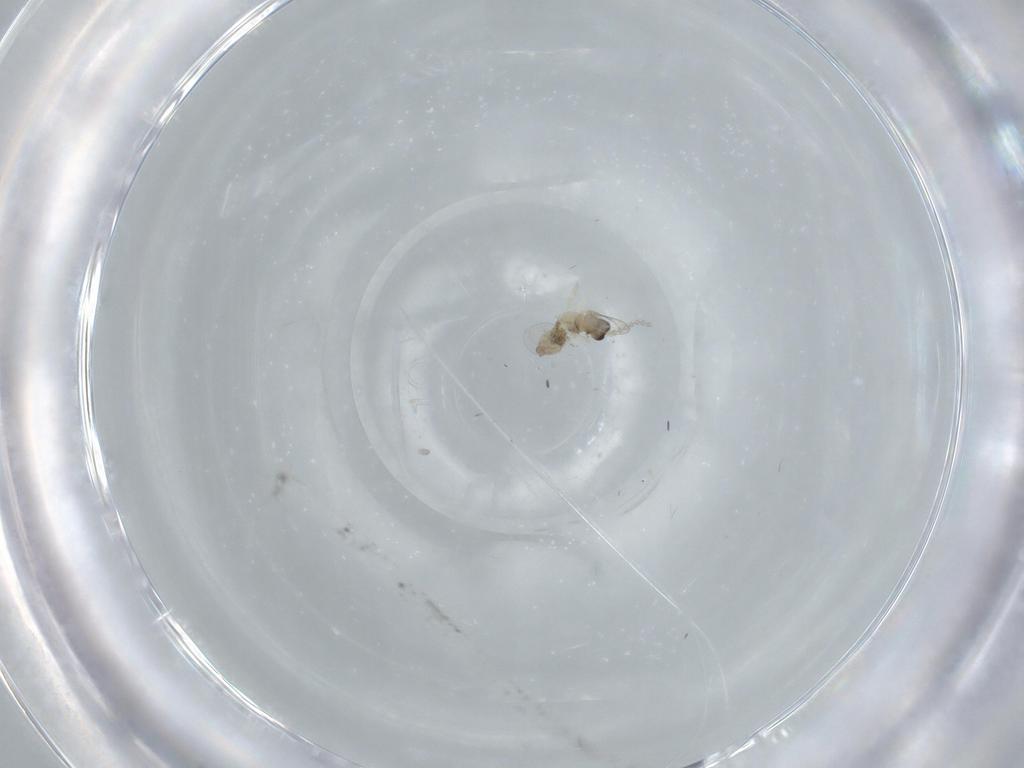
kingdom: Animalia
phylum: Arthropoda
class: Insecta
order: Diptera
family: Cecidomyiidae
